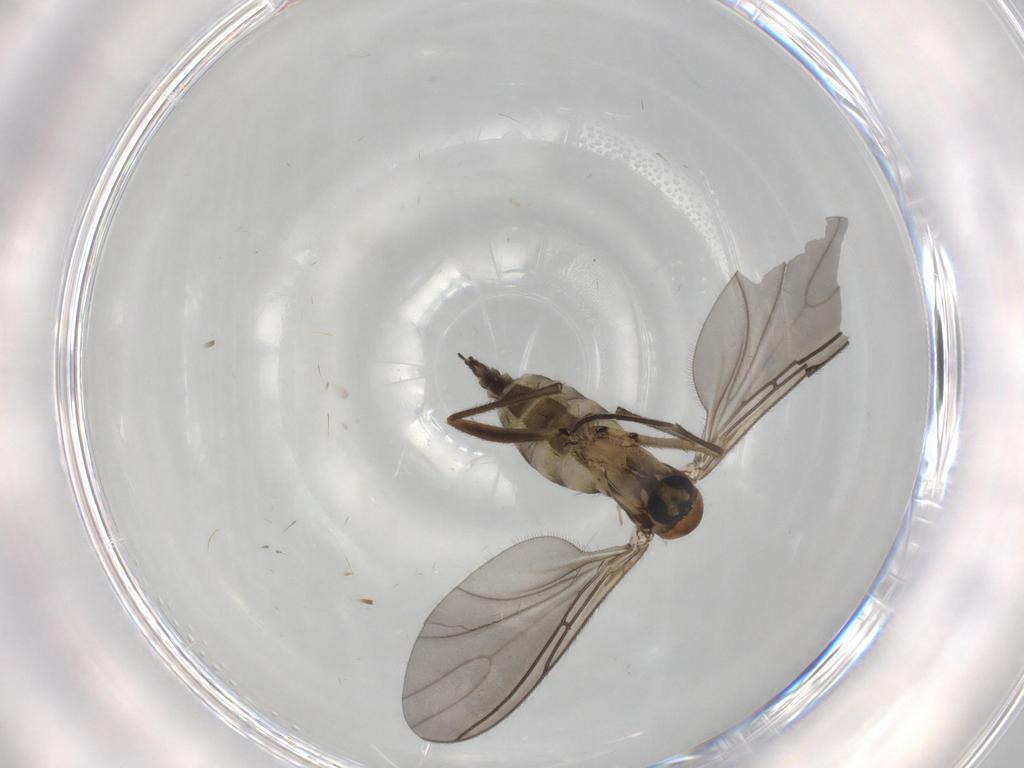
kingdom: Animalia
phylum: Arthropoda
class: Insecta
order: Diptera
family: Sciaridae
